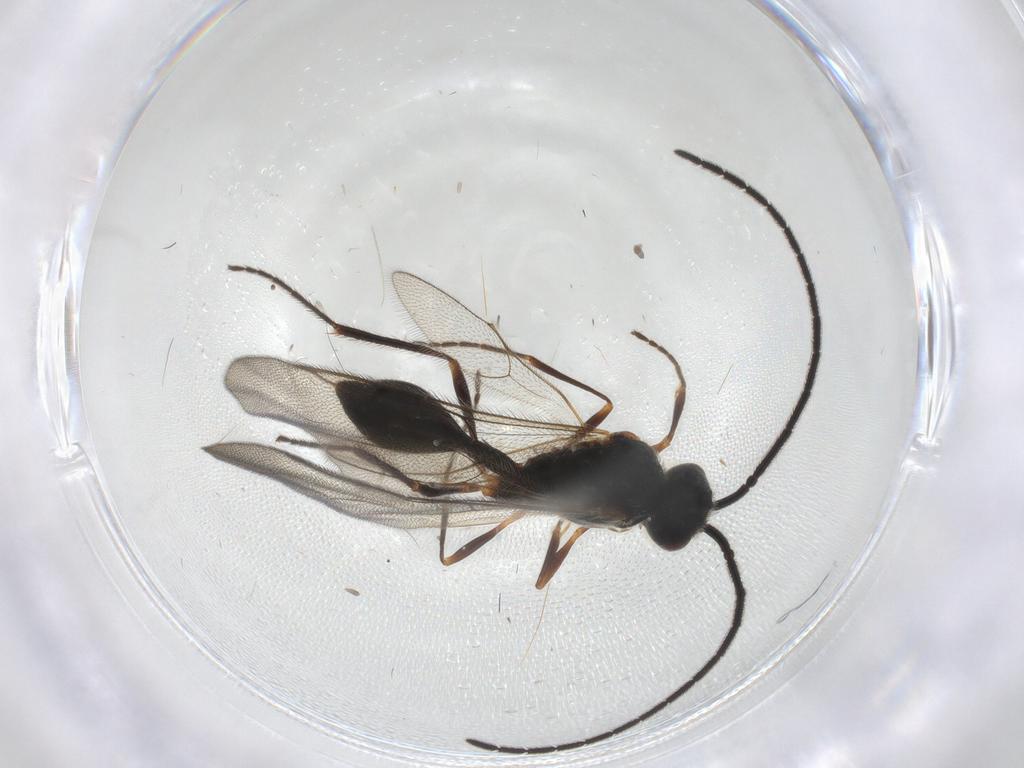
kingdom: Animalia
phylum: Arthropoda
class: Insecta
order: Hymenoptera
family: Diapriidae
